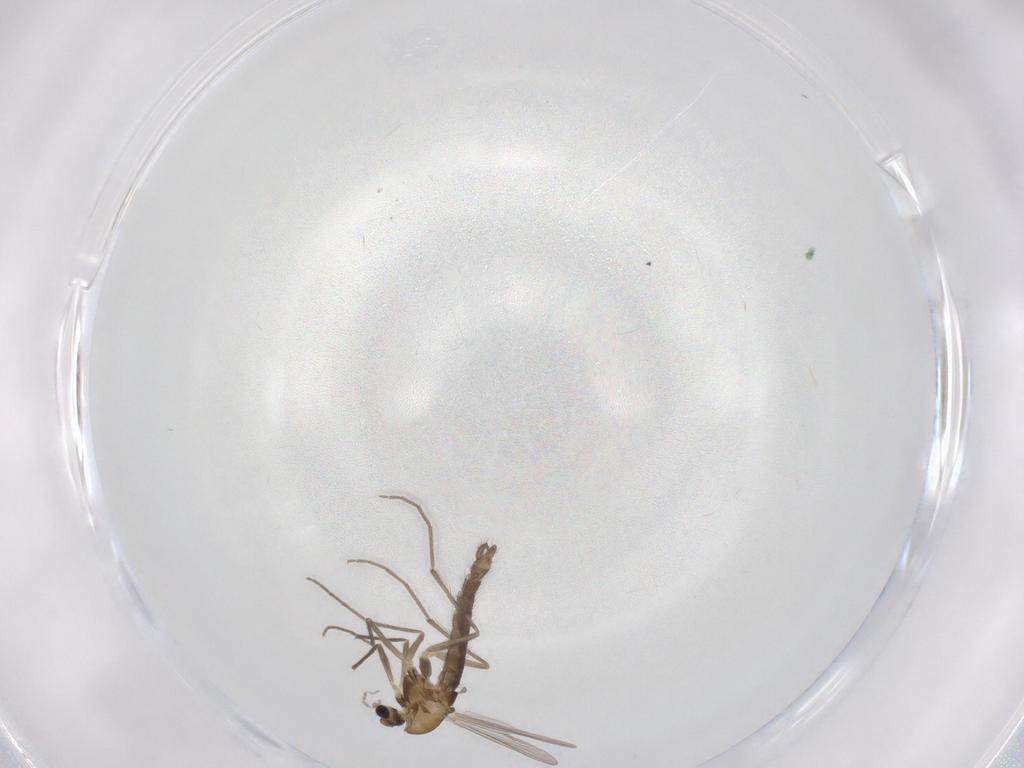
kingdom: Animalia
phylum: Arthropoda
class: Insecta
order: Diptera
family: Chironomidae
